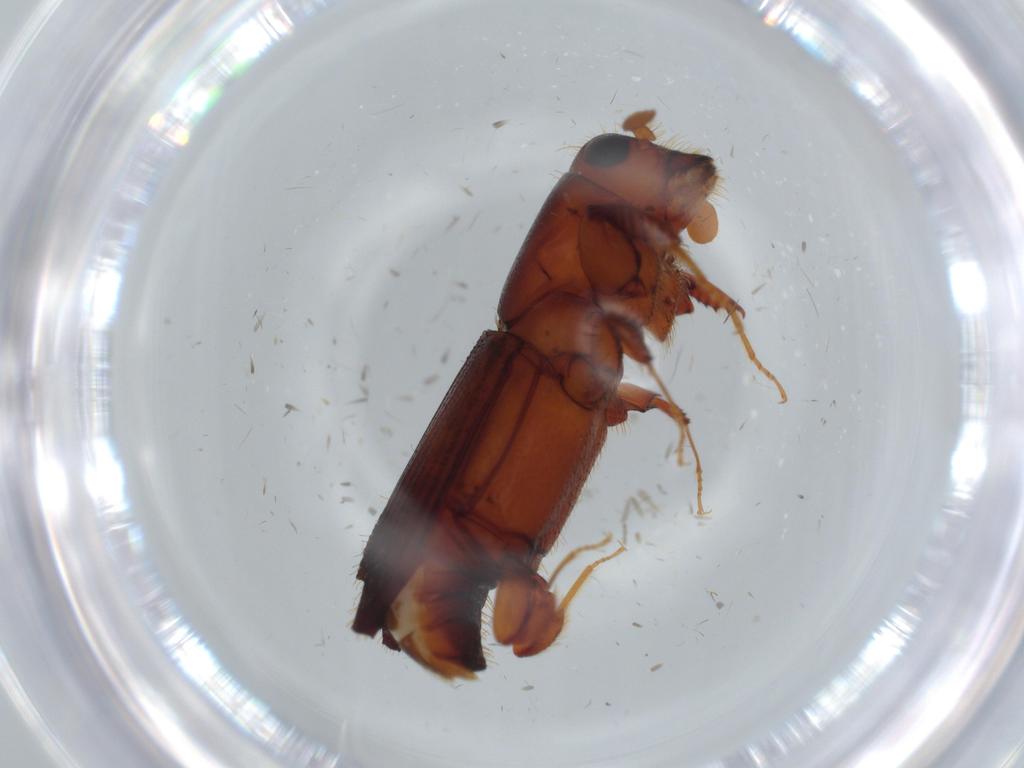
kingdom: Animalia
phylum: Arthropoda
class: Insecta
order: Coleoptera
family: Curculionidae
